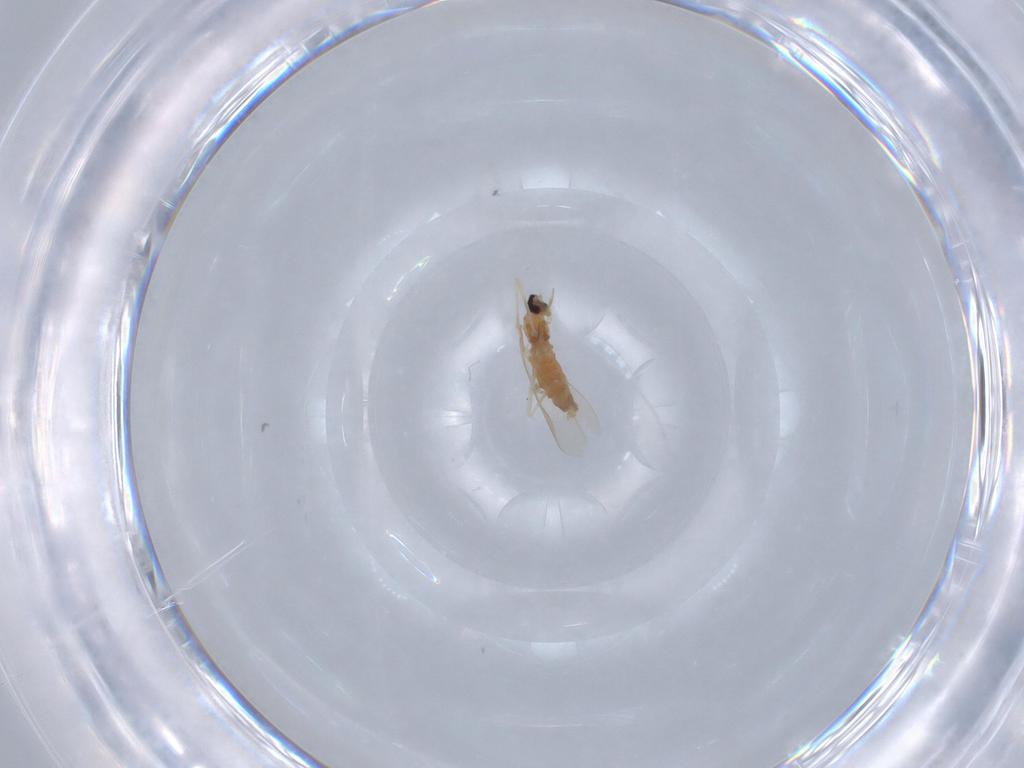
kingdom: Animalia
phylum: Arthropoda
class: Insecta
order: Diptera
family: Cecidomyiidae
